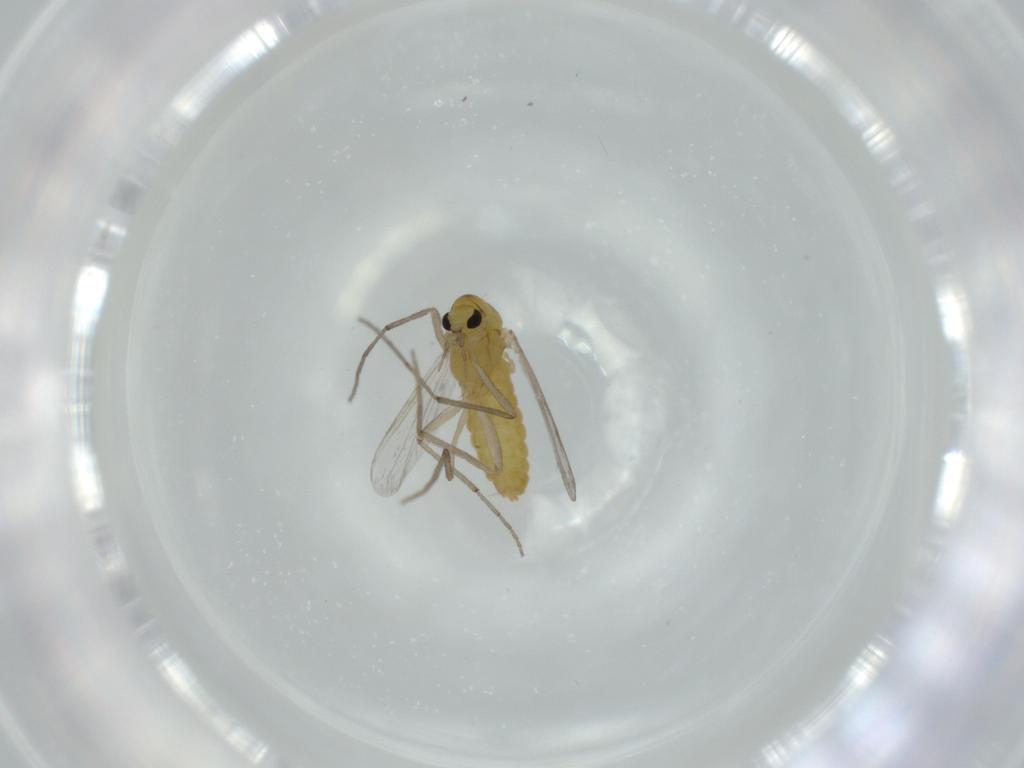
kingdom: Animalia
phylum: Arthropoda
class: Insecta
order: Diptera
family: Chironomidae
